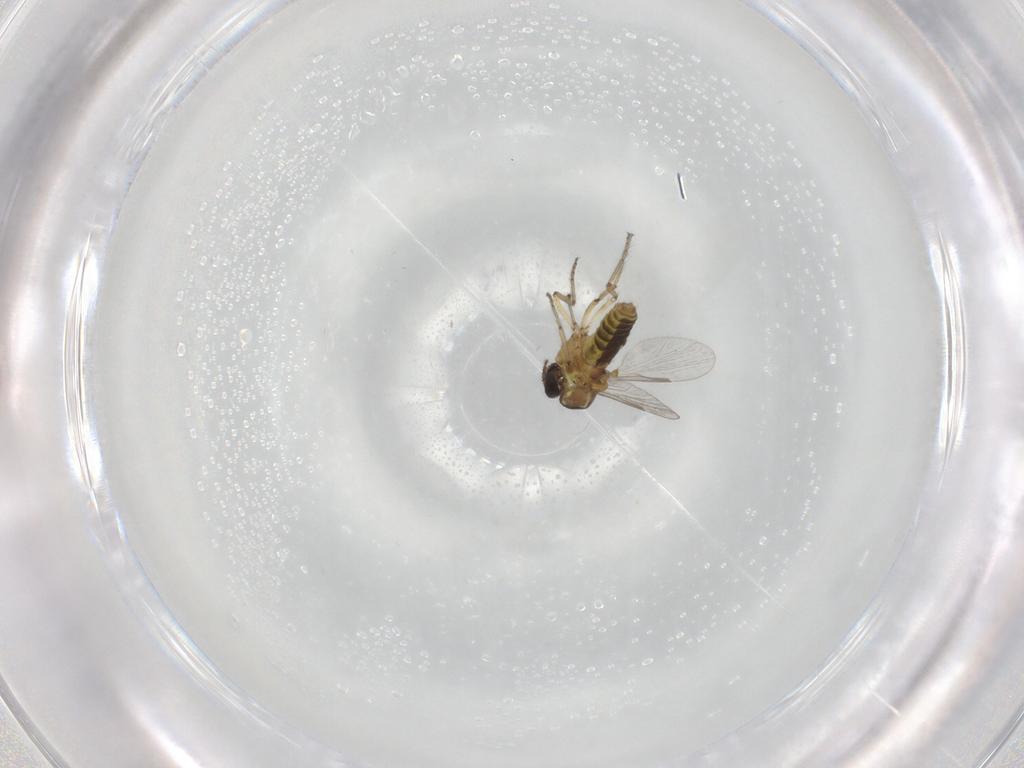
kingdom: Animalia
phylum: Arthropoda
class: Insecta
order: Diptera
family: Ceratopogonidae
